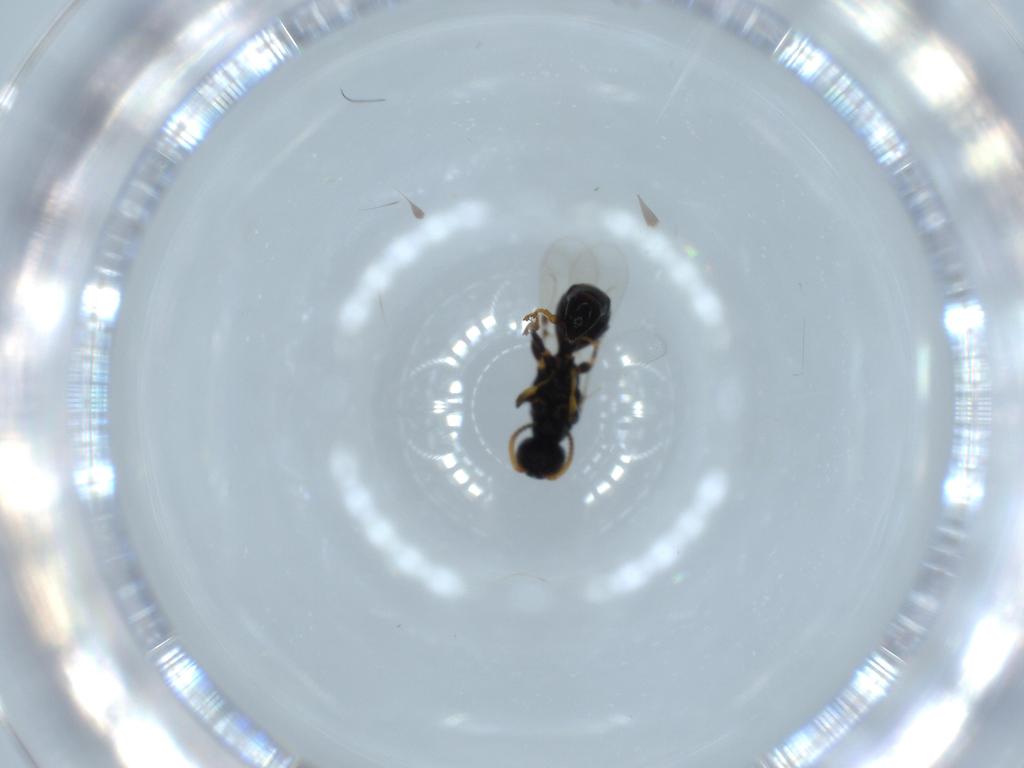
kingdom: Animalia
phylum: Arthropoda
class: Insecta
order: Hymenoptera
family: Bethylidae
